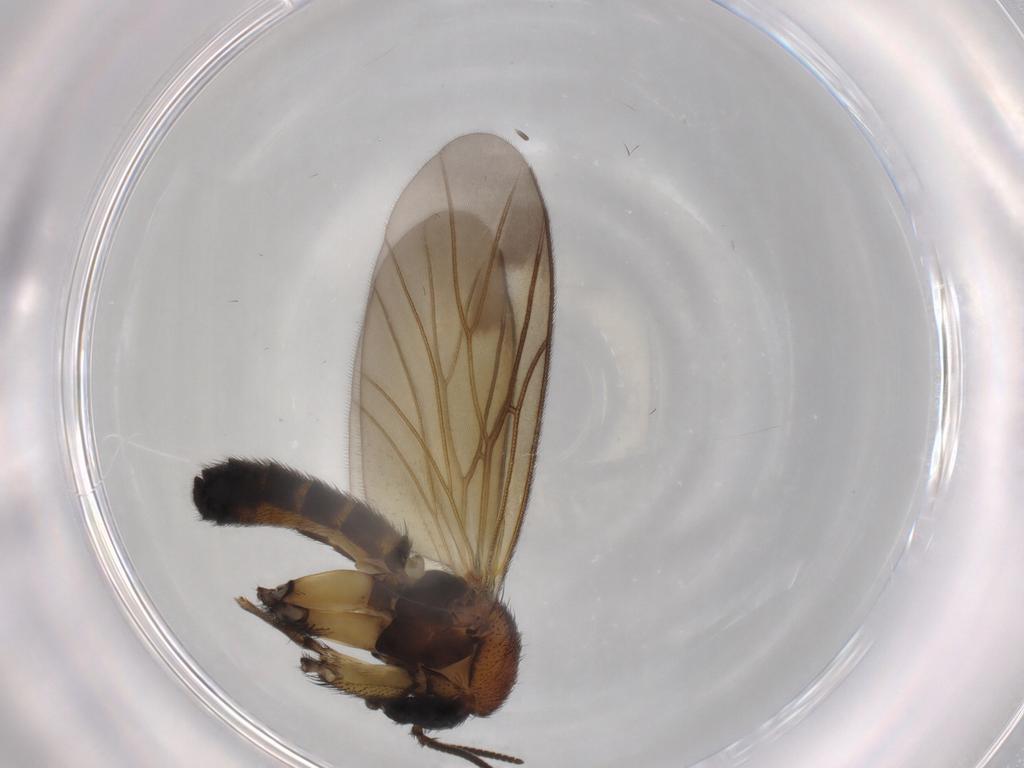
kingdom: Animalia
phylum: Arthropoda
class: Insecta
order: Diptera
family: Mycetophilidae
